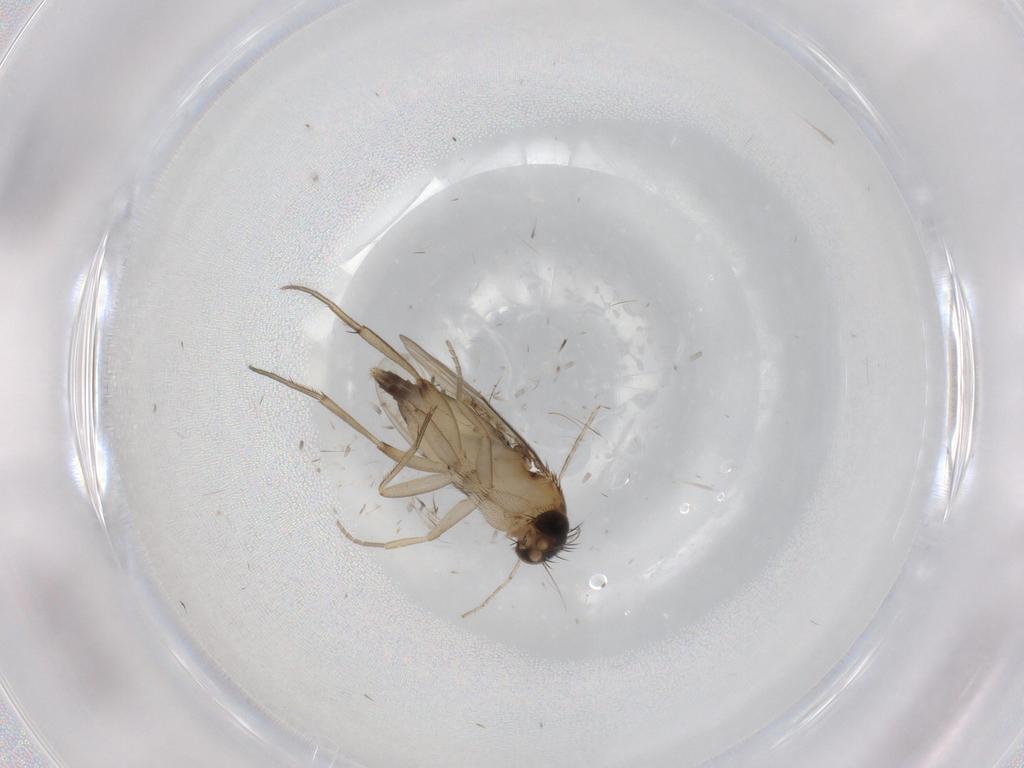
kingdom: Animalia
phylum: Arthropoda
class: Insecta
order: Diptera
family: Phoridae
